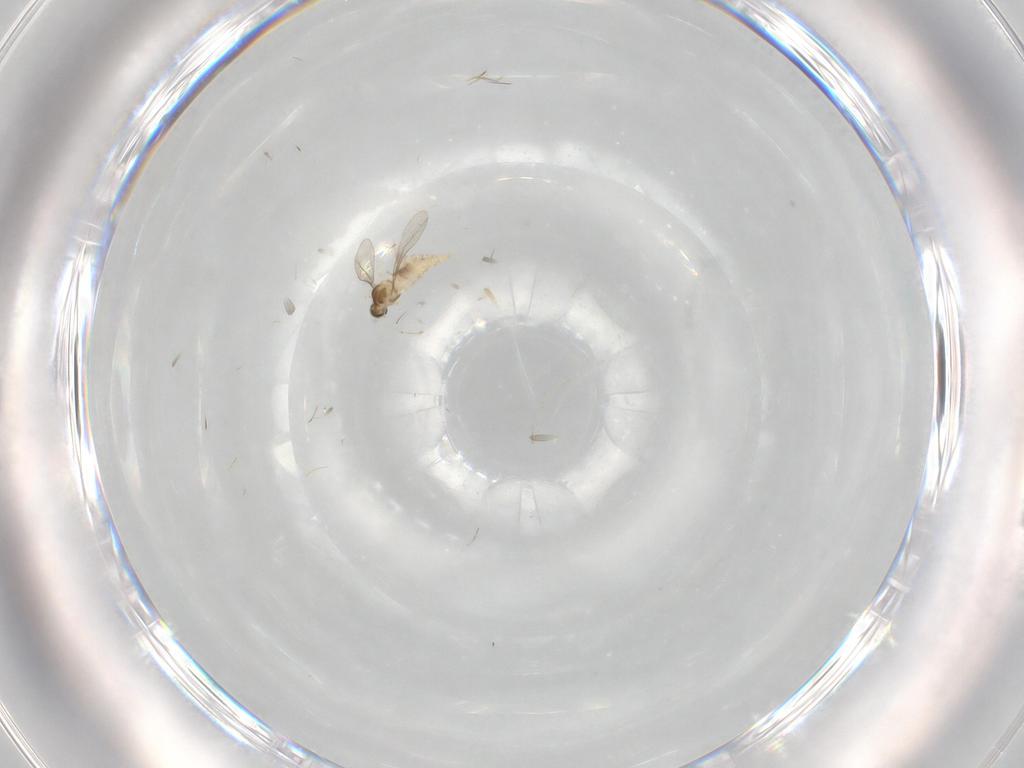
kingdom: Animalia
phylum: Arthropoda
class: Insecta
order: Diptera
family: Cecidomyiidae
